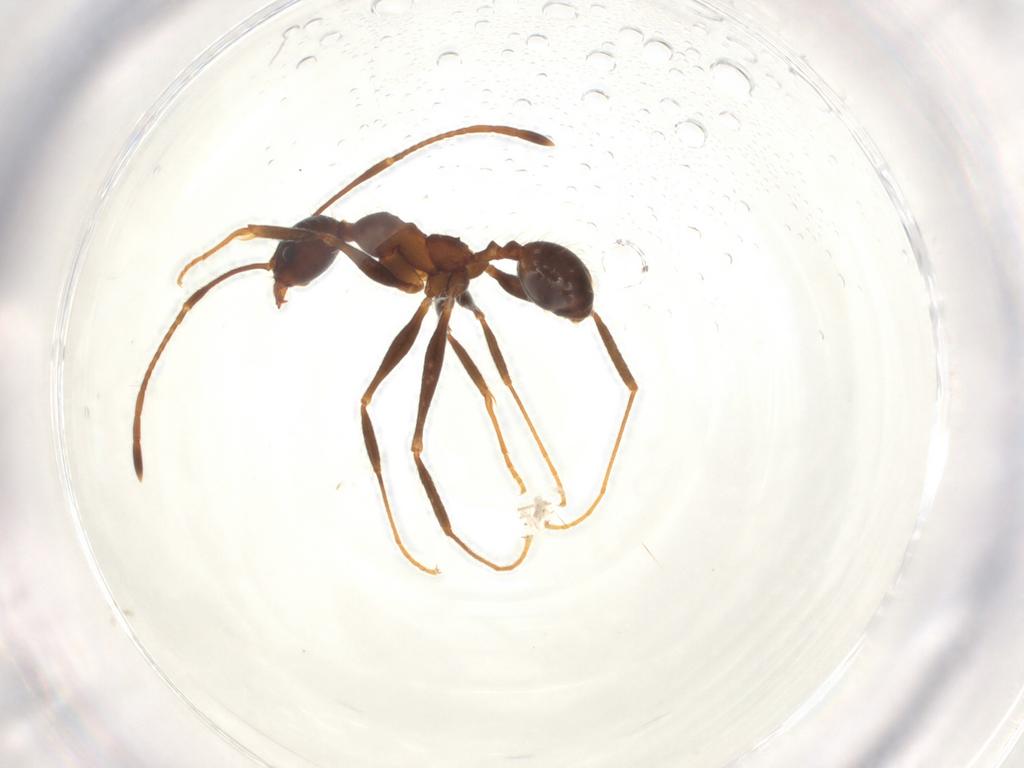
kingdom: Animalia
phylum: Arthropoda
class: Insecta
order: Hymenoptera
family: Formicidae
